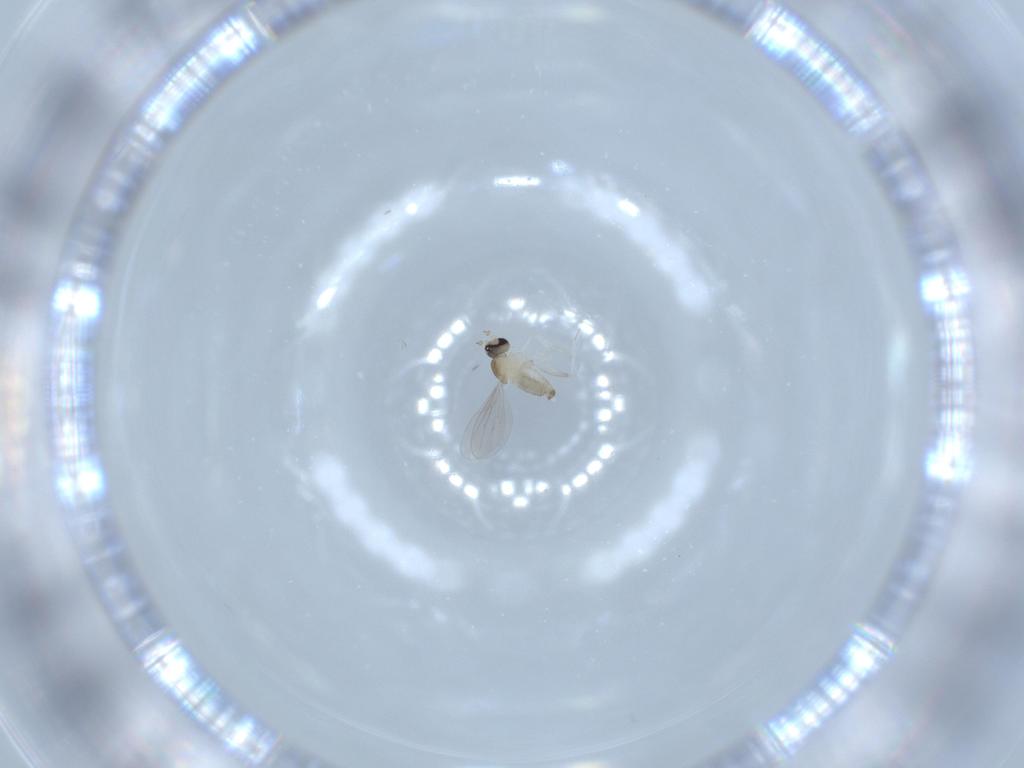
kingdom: Animalia
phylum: Arthropoda
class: Insecta
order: Diptera
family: Cecidomyiidae
